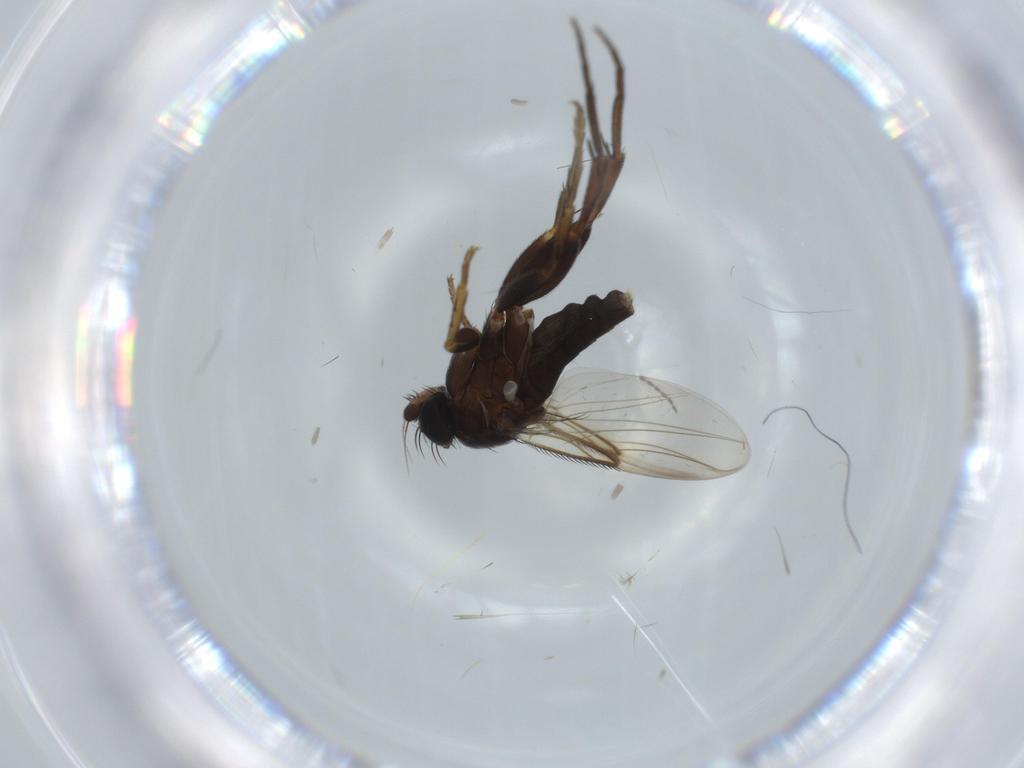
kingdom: Animalia
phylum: Arthropoda
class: Insecta
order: Diptera
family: Phoridae
